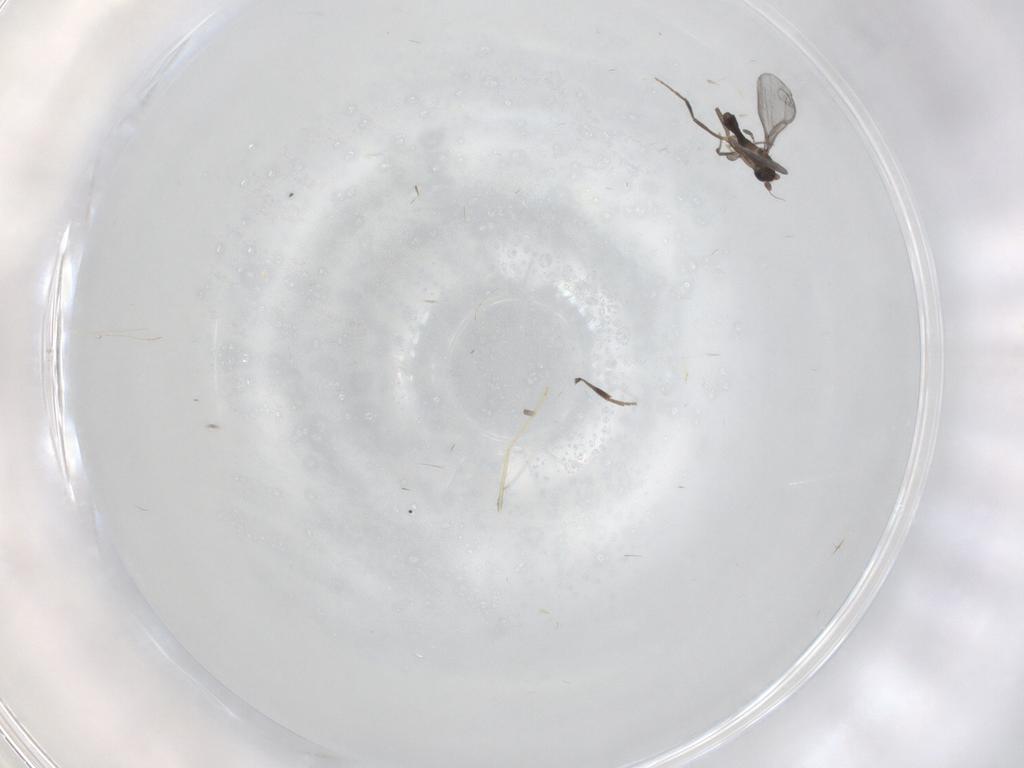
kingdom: Animalia
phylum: Arthropoda
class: Insecta
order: Diptera
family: Cecidomyiidae
